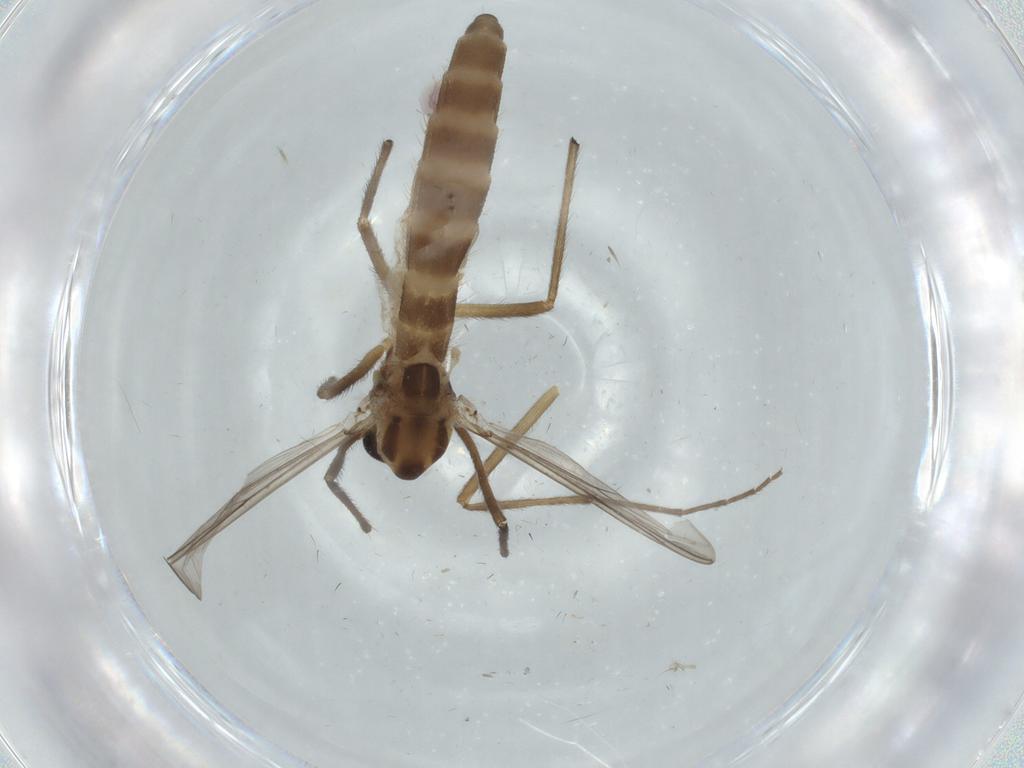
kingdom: Animalia
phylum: Arthropoda
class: Insecta
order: Diptera
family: Chironomidae
